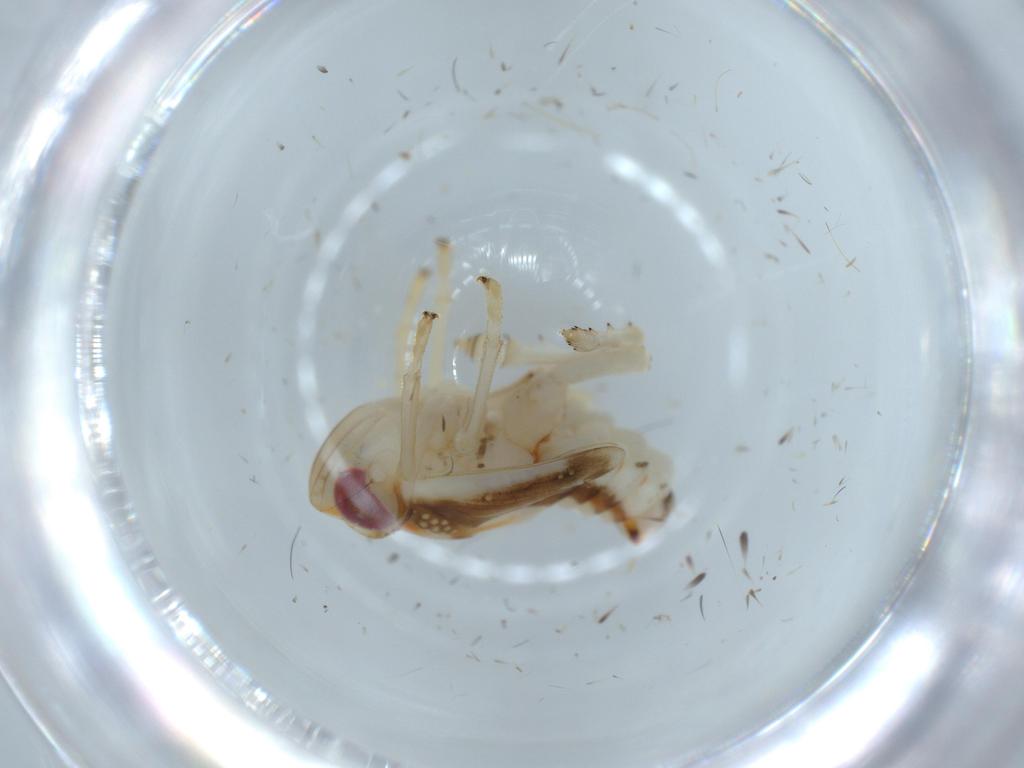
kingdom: Animalia
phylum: Arthropoda
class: Insecta
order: Hemiptera
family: Nogodinidae
